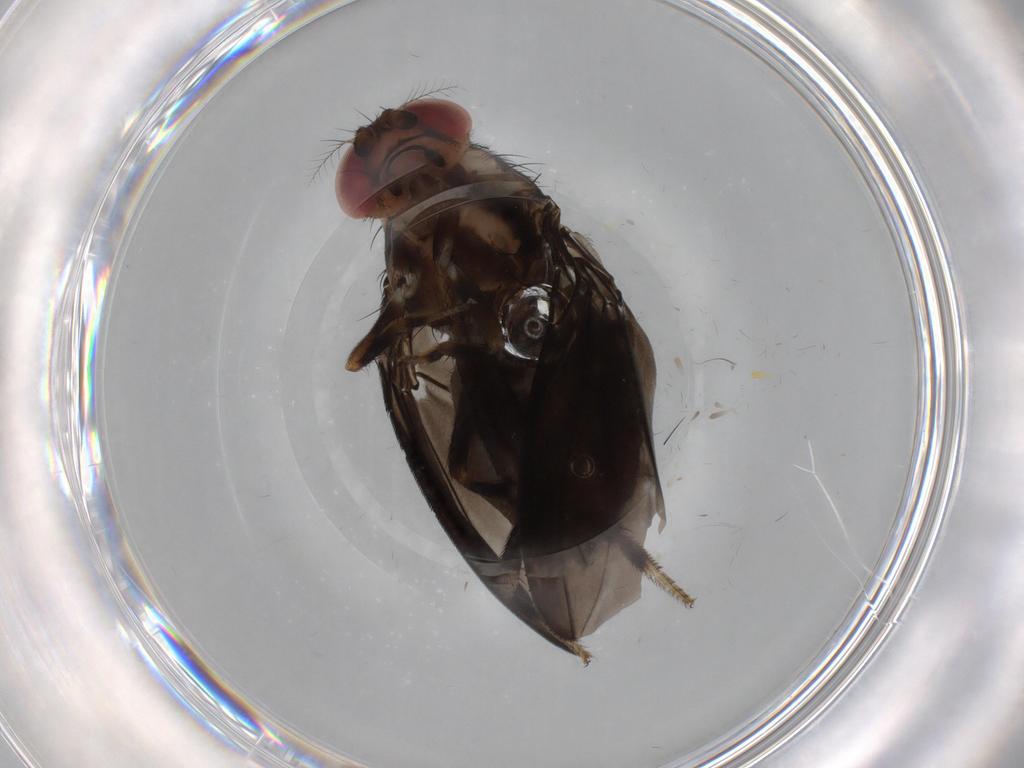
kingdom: Animalia
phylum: Arthropoda
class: Insecta
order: Diptera
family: Drosophilidae
